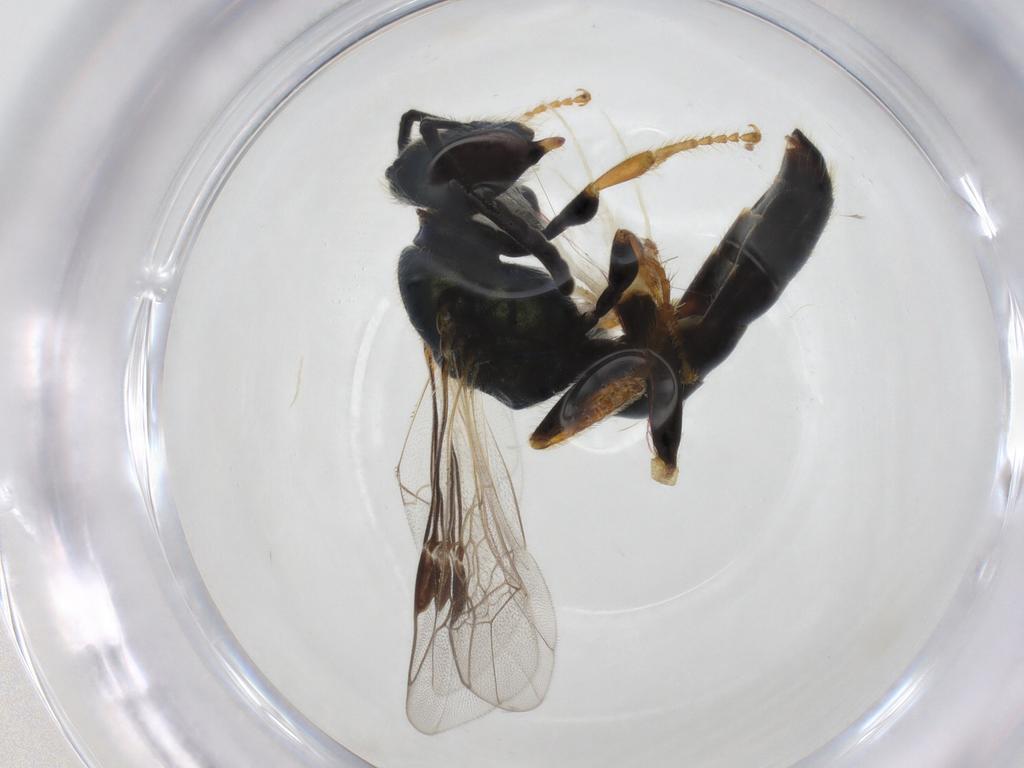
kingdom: Animalia
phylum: Arthropoda
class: Insecta
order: Hymenoptera
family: Halictidae
